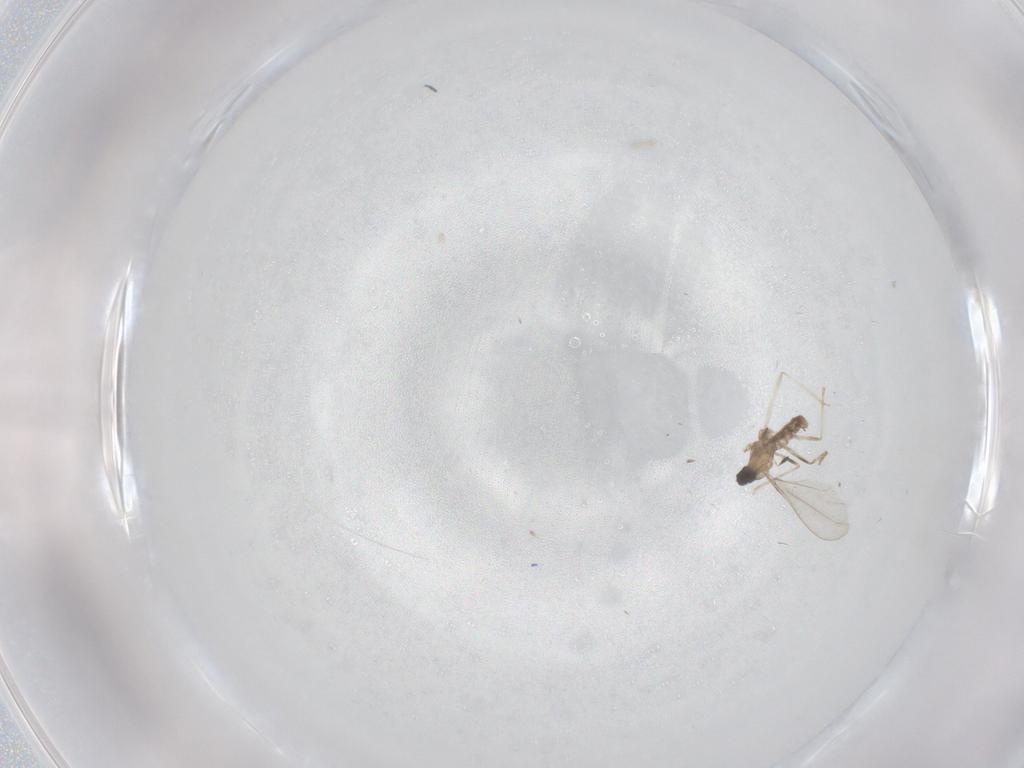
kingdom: Animalia
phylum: Arthropoda
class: Insecta
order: Diptera
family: Cecidomyiidae
